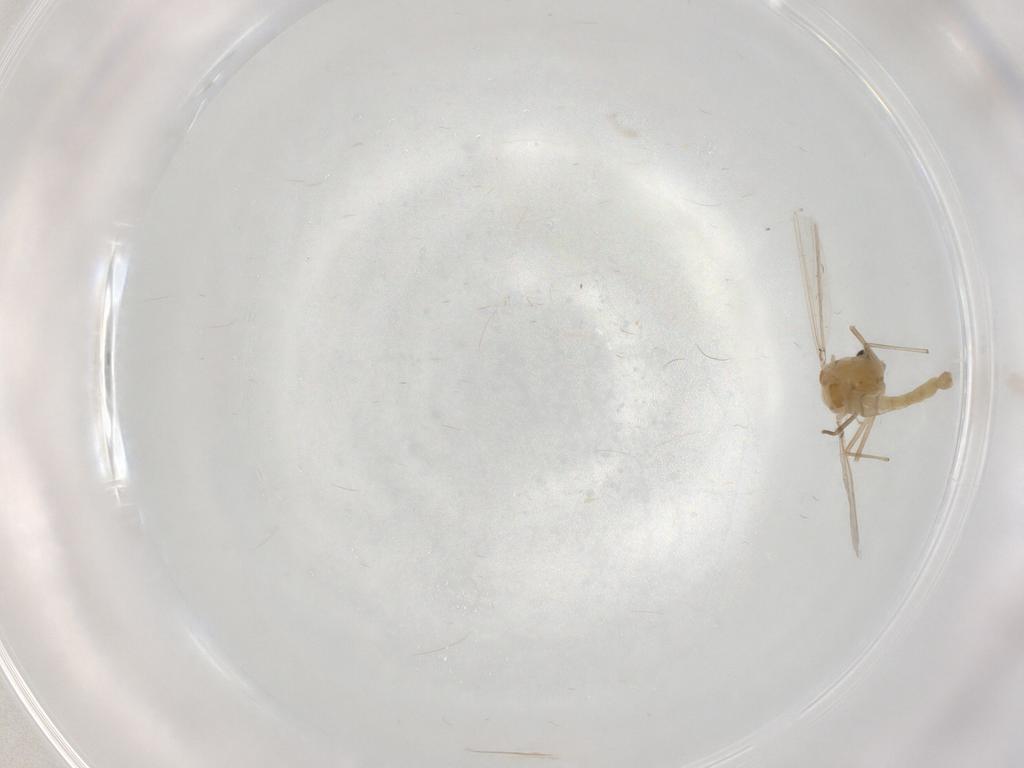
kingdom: Animalia
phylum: Arthropoda
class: Insecta
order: Diptera
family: Chironomidae
